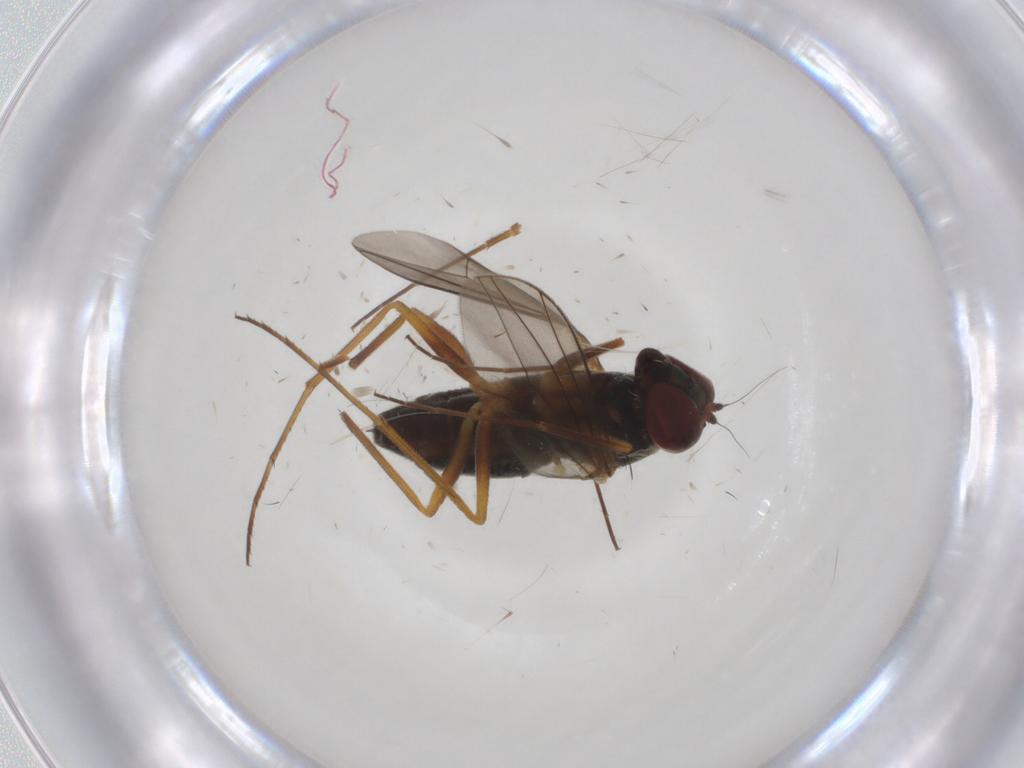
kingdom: Animalia
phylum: Arthropoda
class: Insecta
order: Diptera
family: Dolichopodidae
